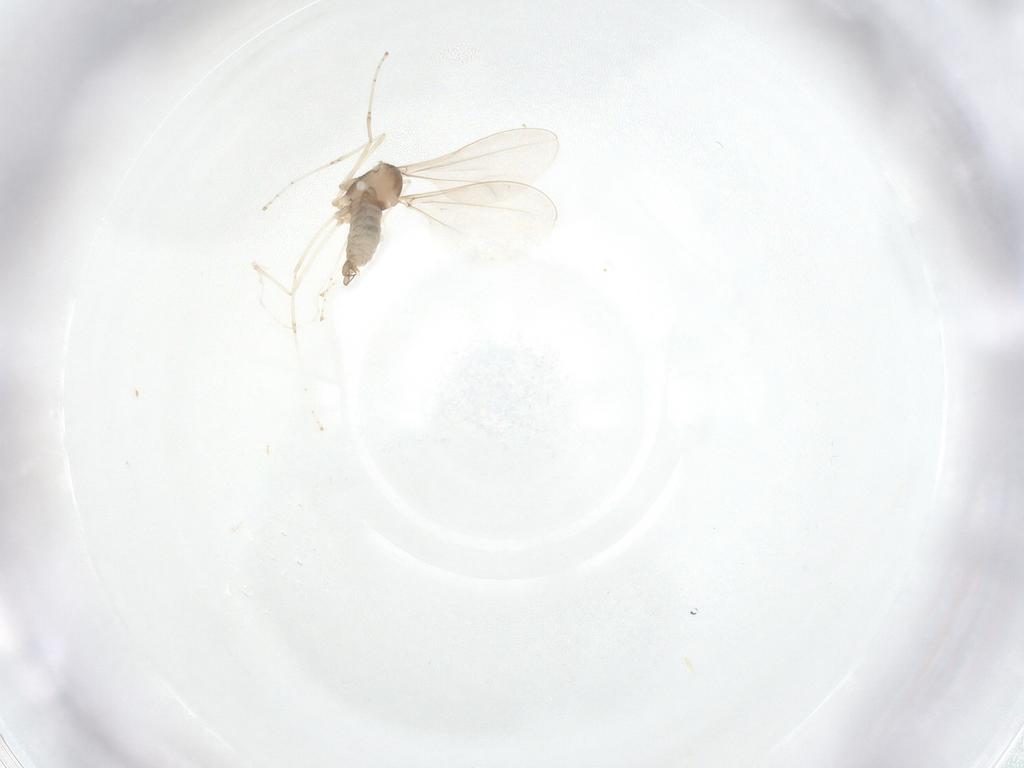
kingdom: Animalia
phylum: Arthropoda
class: Insecta
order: Diptera
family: Cecidomyiidae
